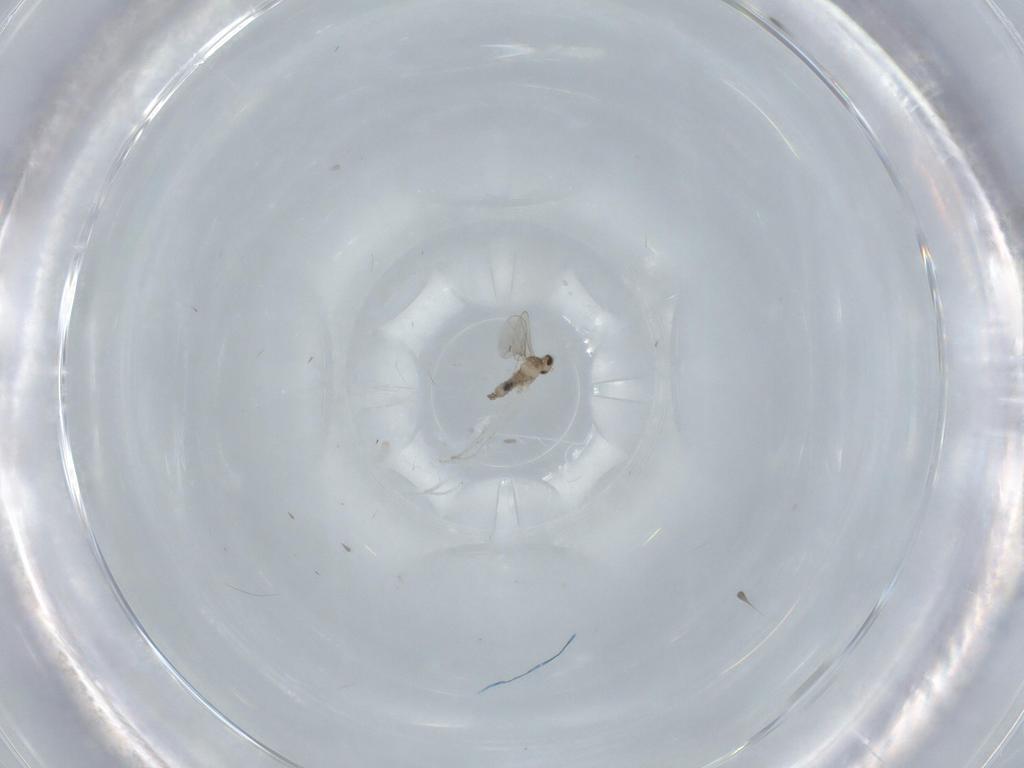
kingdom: Animalia
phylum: Arthropoda
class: Insecta
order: Diptera
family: Cecidomyiidae
